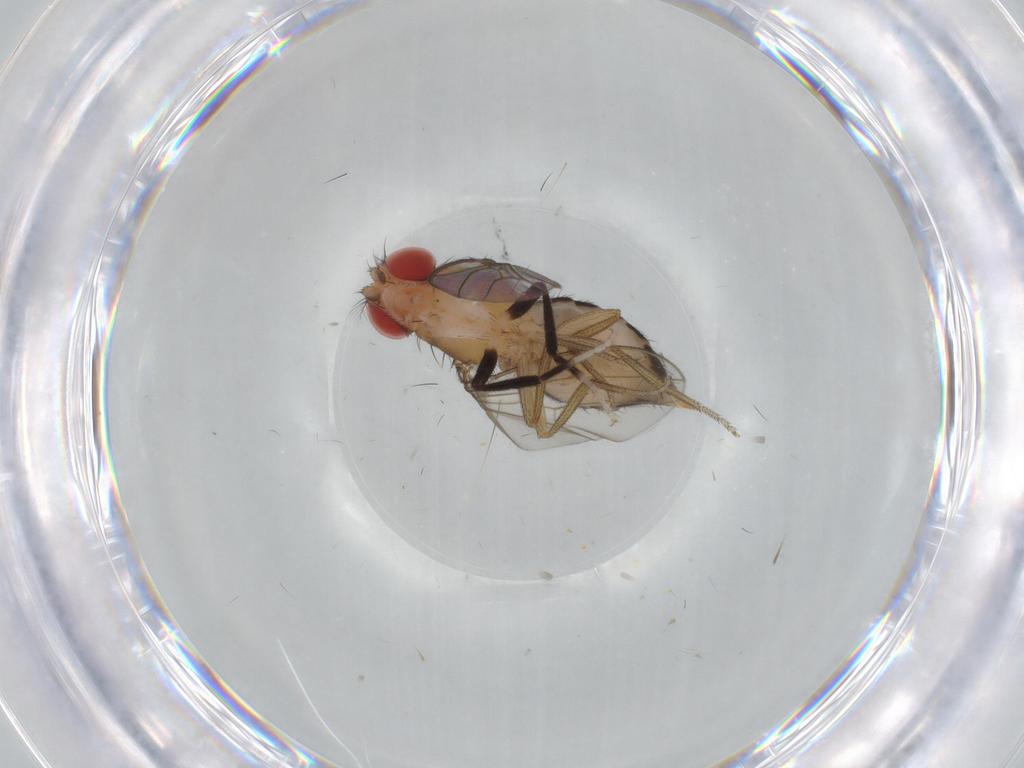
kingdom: Animalia
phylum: Arthropoda
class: Insecta
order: Diptera
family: Drosophilidae
